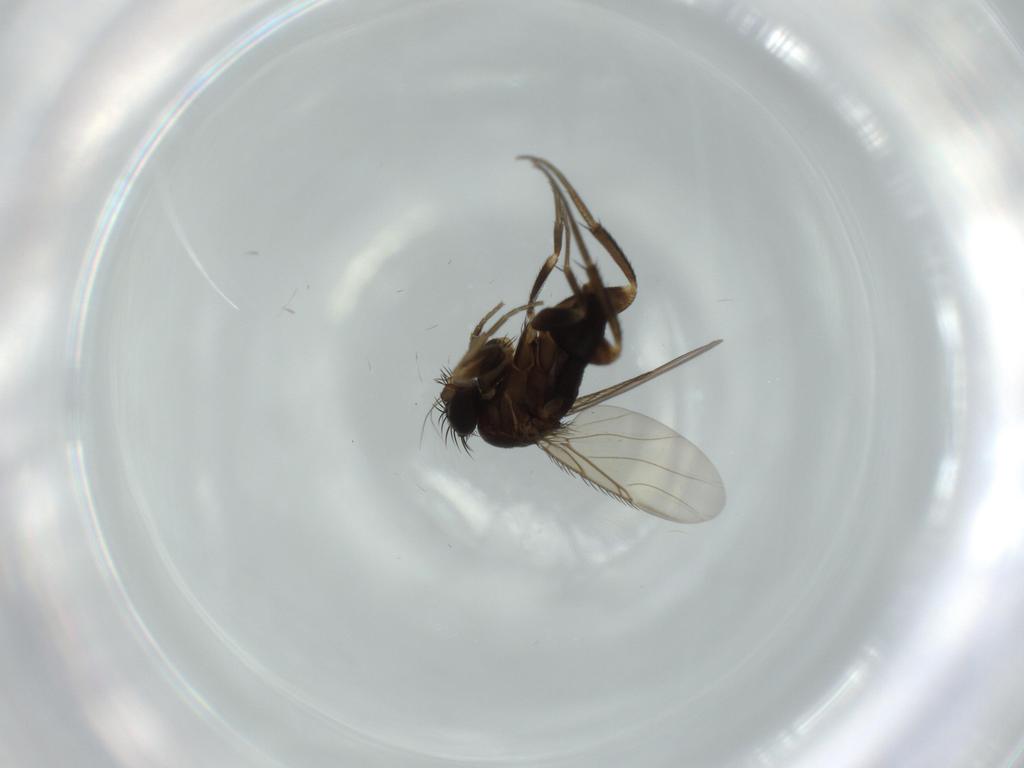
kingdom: Animalia
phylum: Arthropoda
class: Insecta
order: Diptera
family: Phoridae
